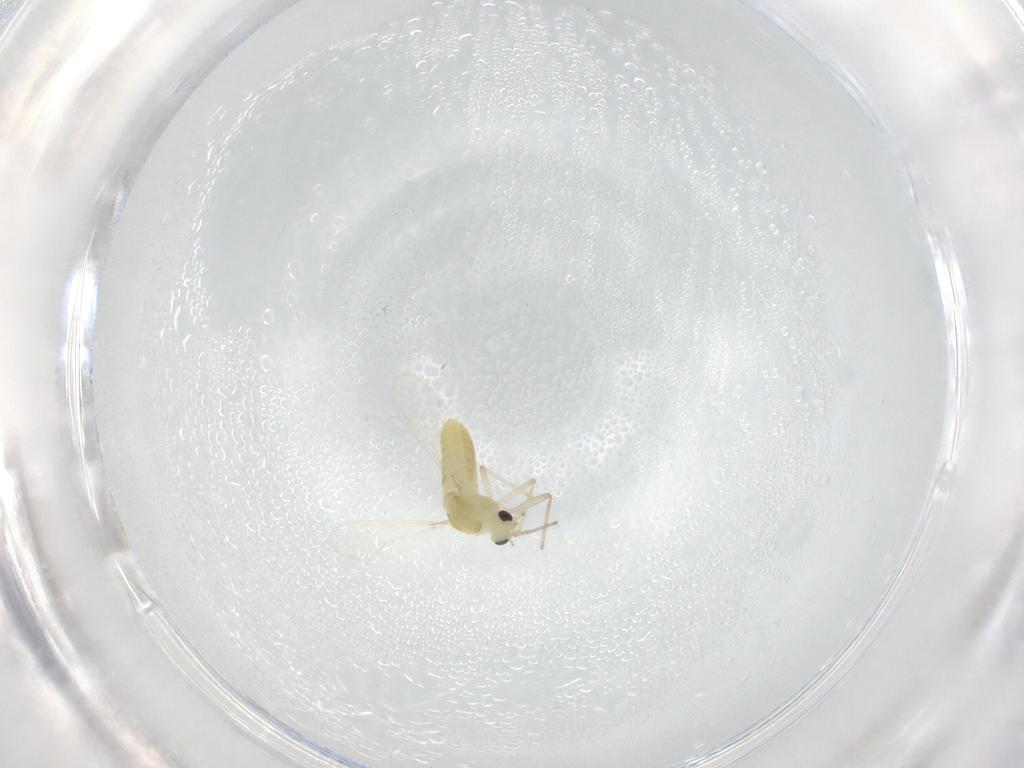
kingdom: Animalia
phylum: Arthropoda
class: Insecta
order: Diptera
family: Chironomidae
